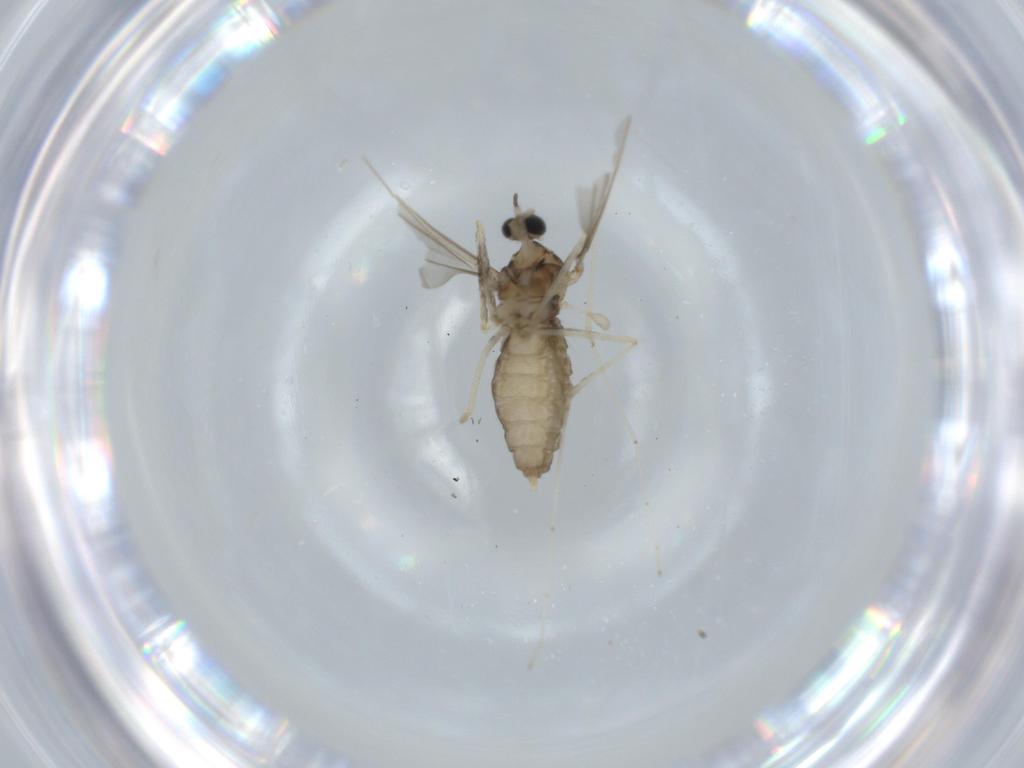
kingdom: Animalia
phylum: Arthropoda
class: Insecta
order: Diptera
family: Cecidomyiidae
